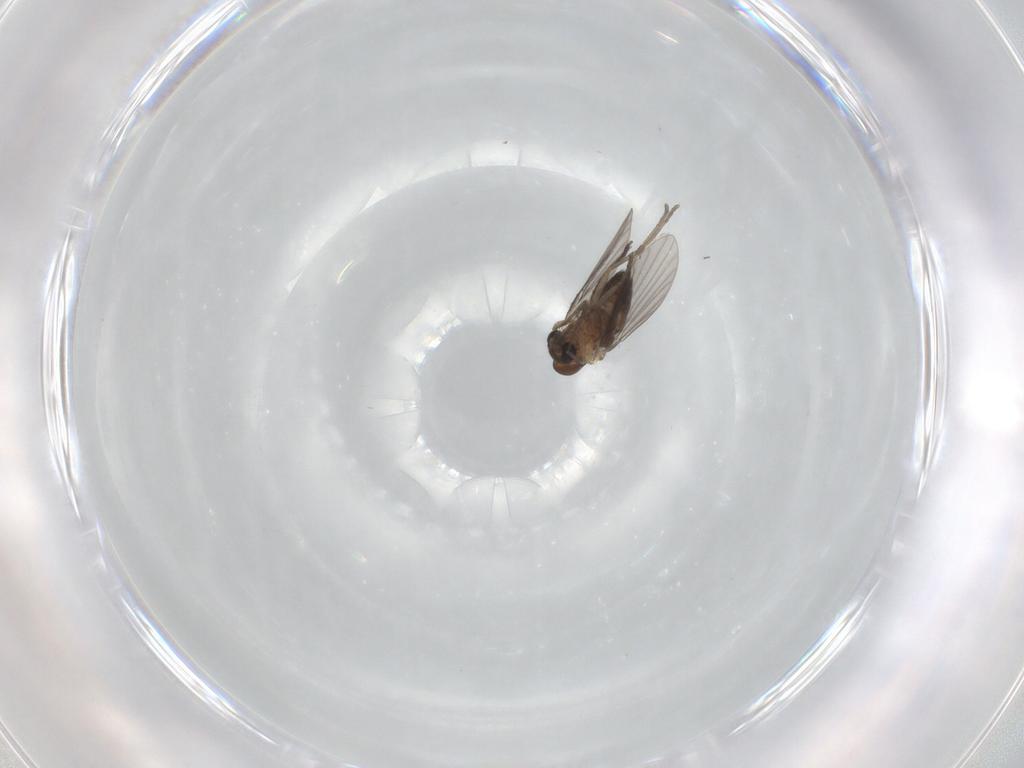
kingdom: Animalia
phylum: Arthropoda
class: Insecta
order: Diptera
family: Psychodidae
